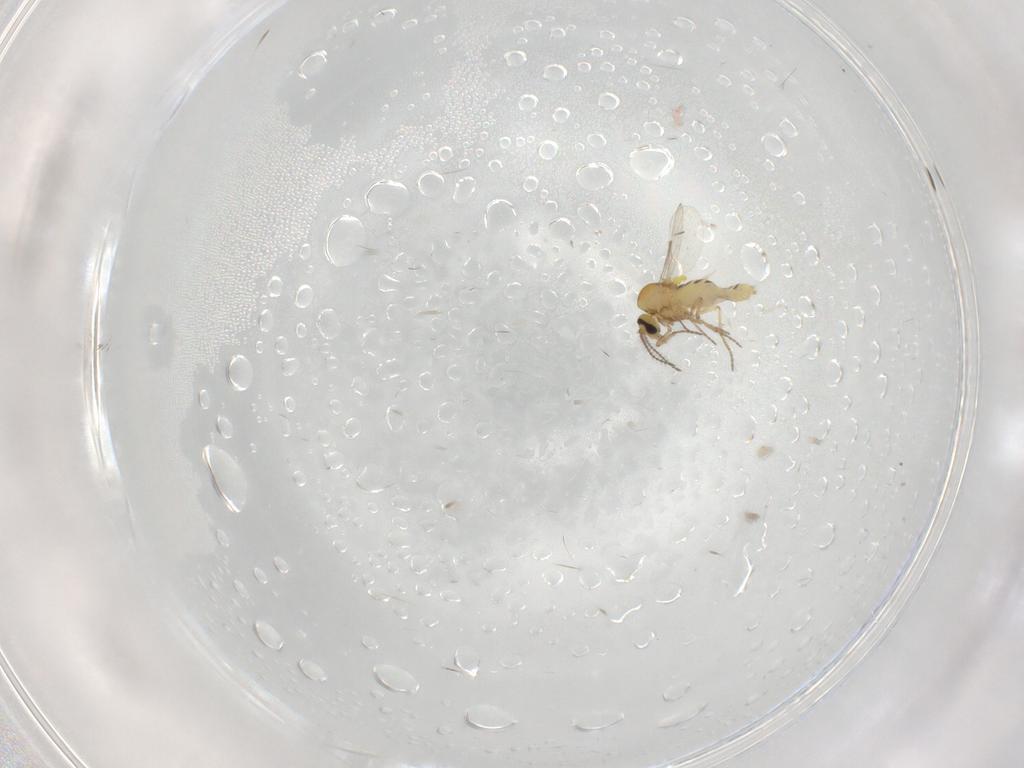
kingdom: Animalia
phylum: Arthropoda
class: Insecta
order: Diptera
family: Ceratopogonidae
